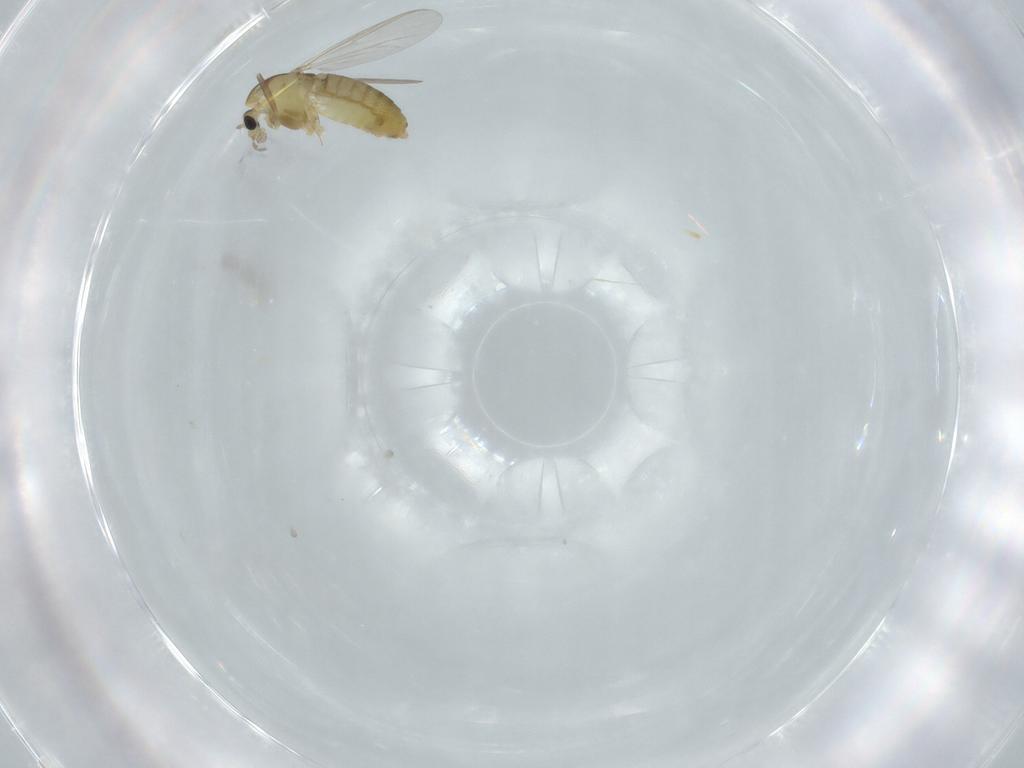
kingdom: Animalia
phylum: Arthropoda
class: Insecta
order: Diptera
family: Chironomidae
